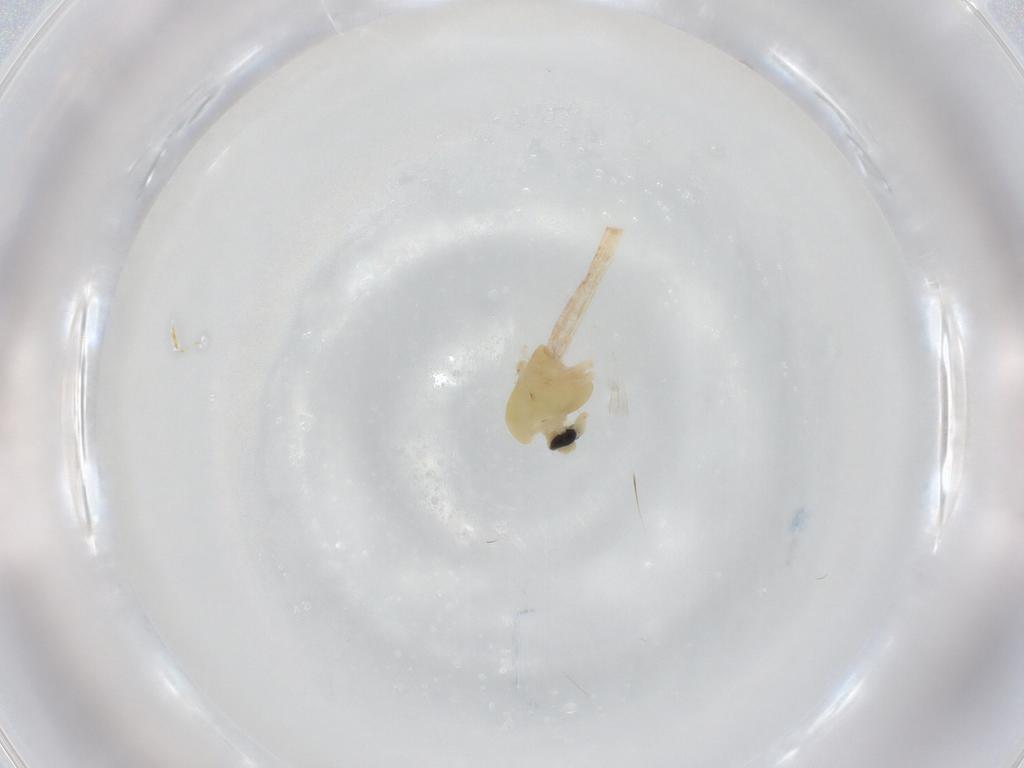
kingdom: Animalia
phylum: Arthropoda
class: Insecta
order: Diptera
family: Chironomidae
